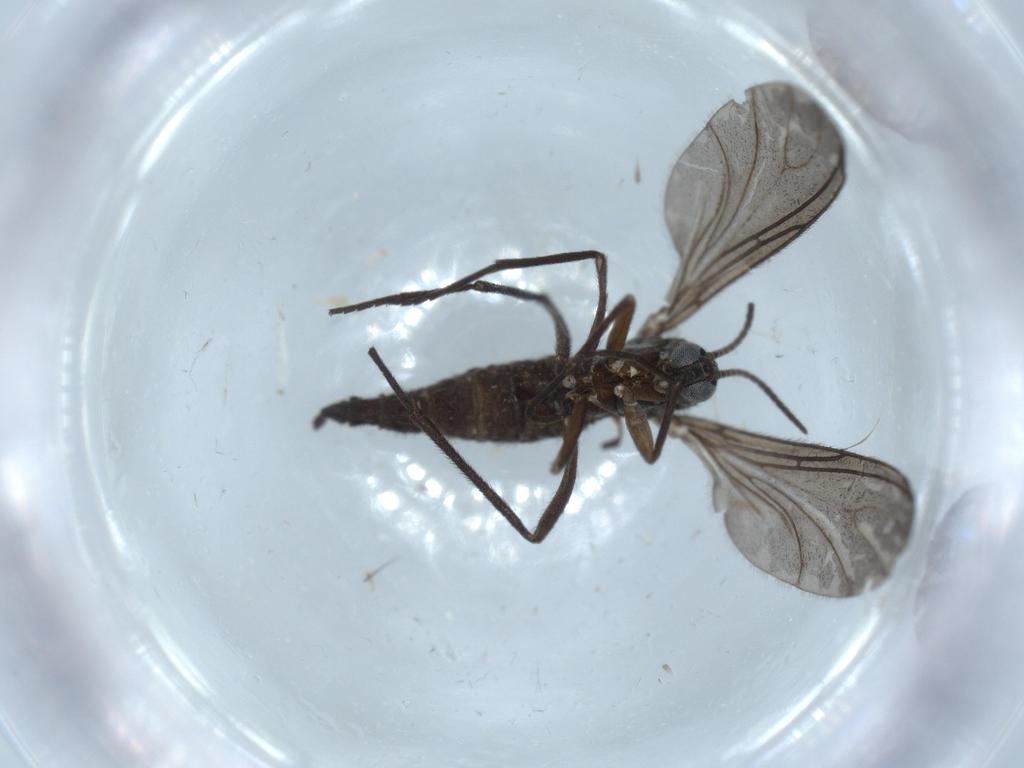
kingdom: Animalia
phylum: Arthropoda
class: Insecta
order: Diptera
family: Sciaridae
